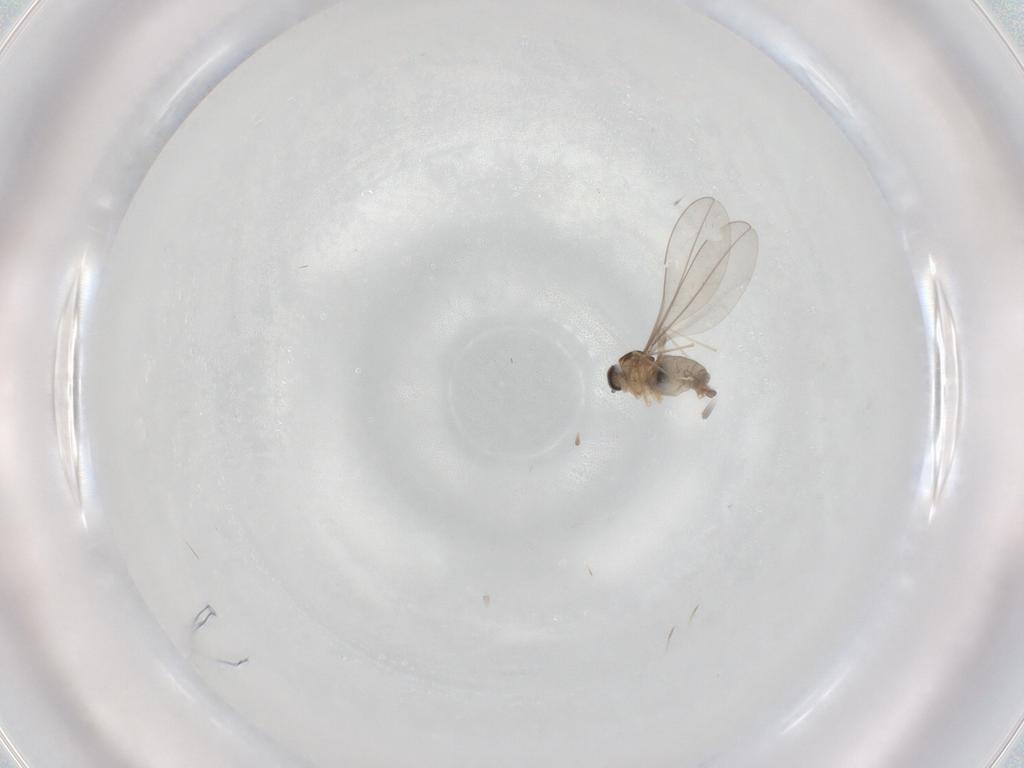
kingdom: Animalia
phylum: Arthropoda
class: Insecta
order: Diptera
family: Cecidomyiidae
